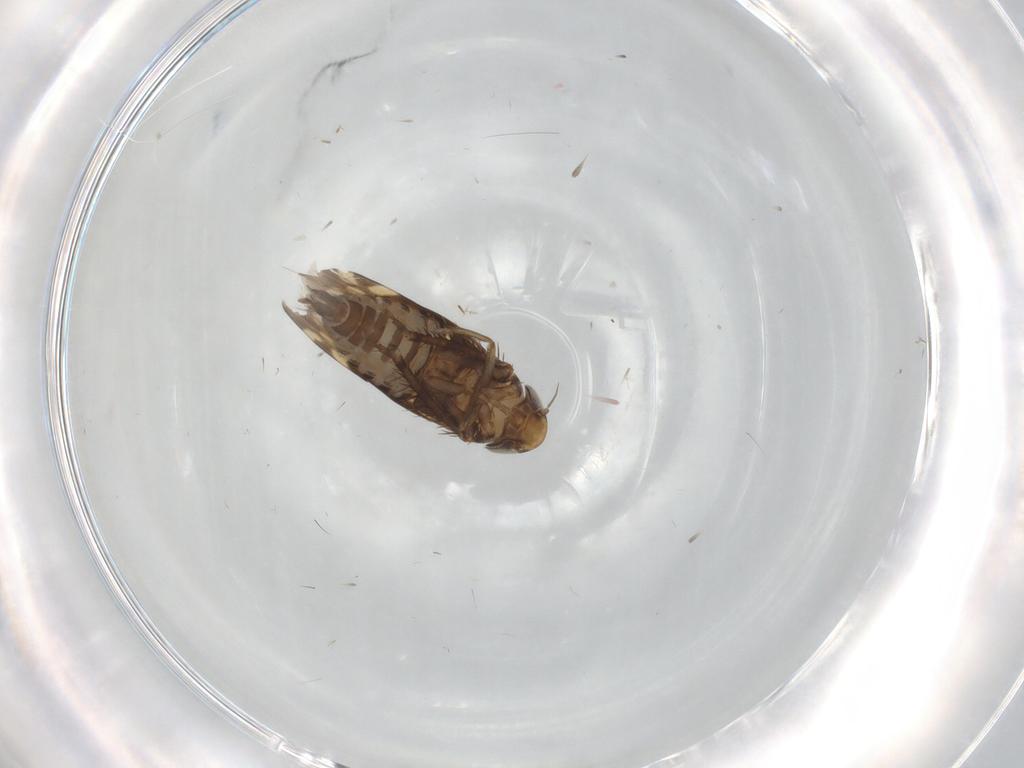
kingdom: Animalia
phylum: Arthropoda
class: Insecta
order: Hemiptera
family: Cicadellidae
